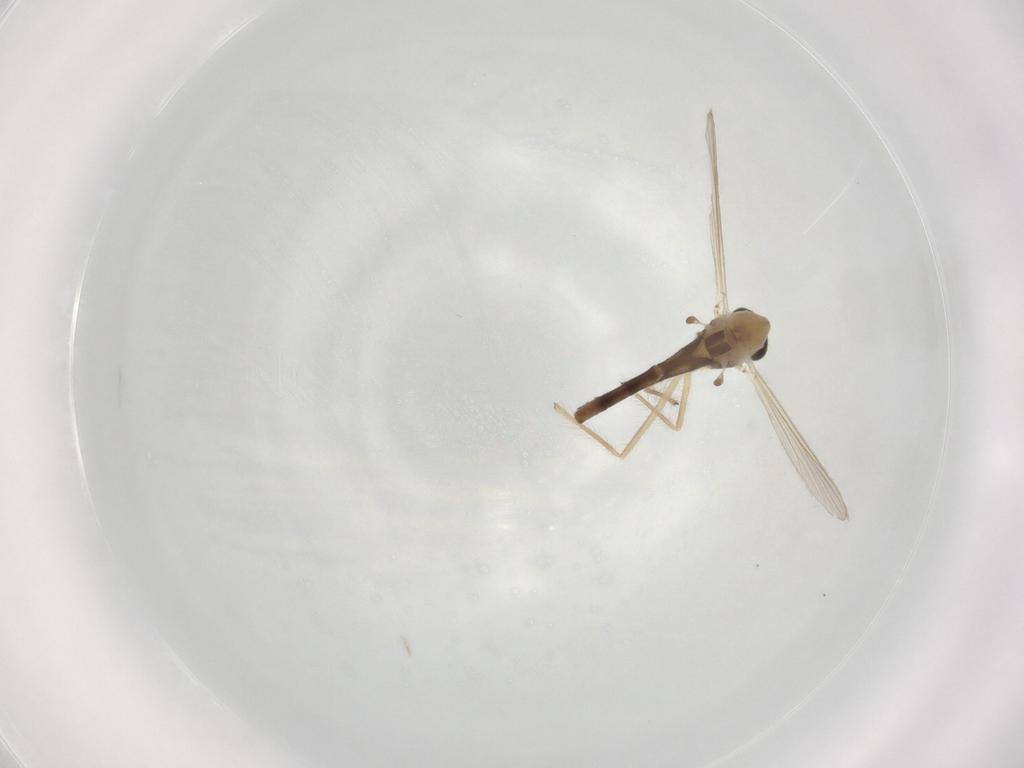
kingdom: Animalia
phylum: Arthropoda
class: Insecta
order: Diptera
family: Chironomidae
